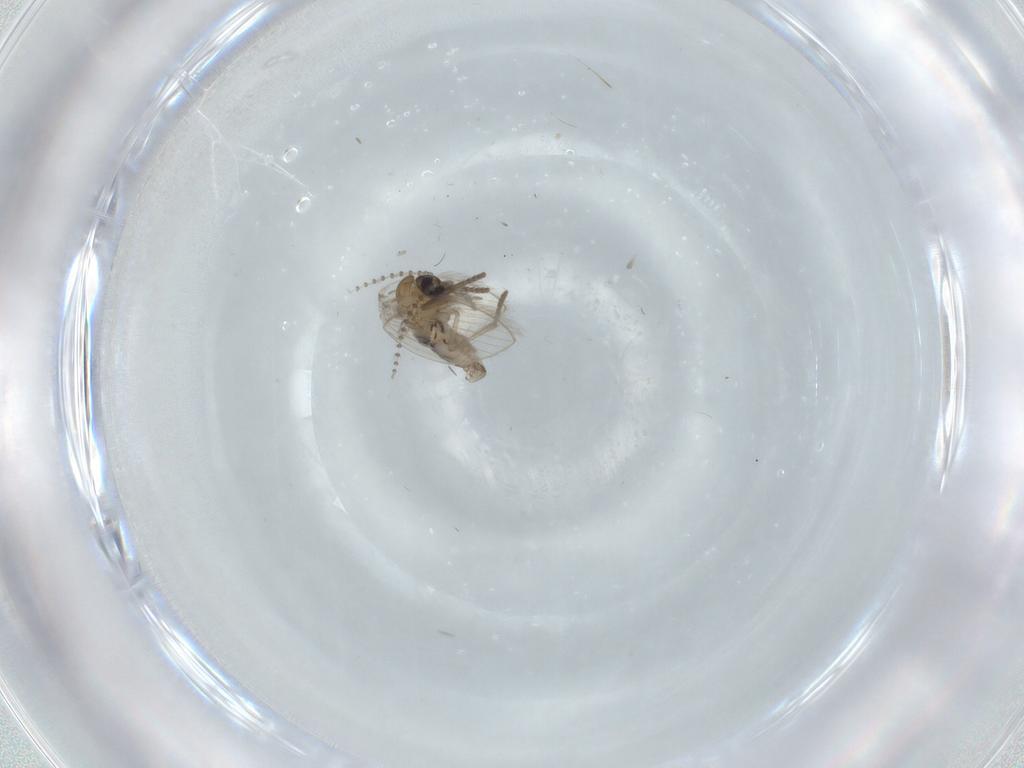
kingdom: Animalia
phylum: Arthropoda
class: Insecta
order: Diptera
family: Psychodidae
